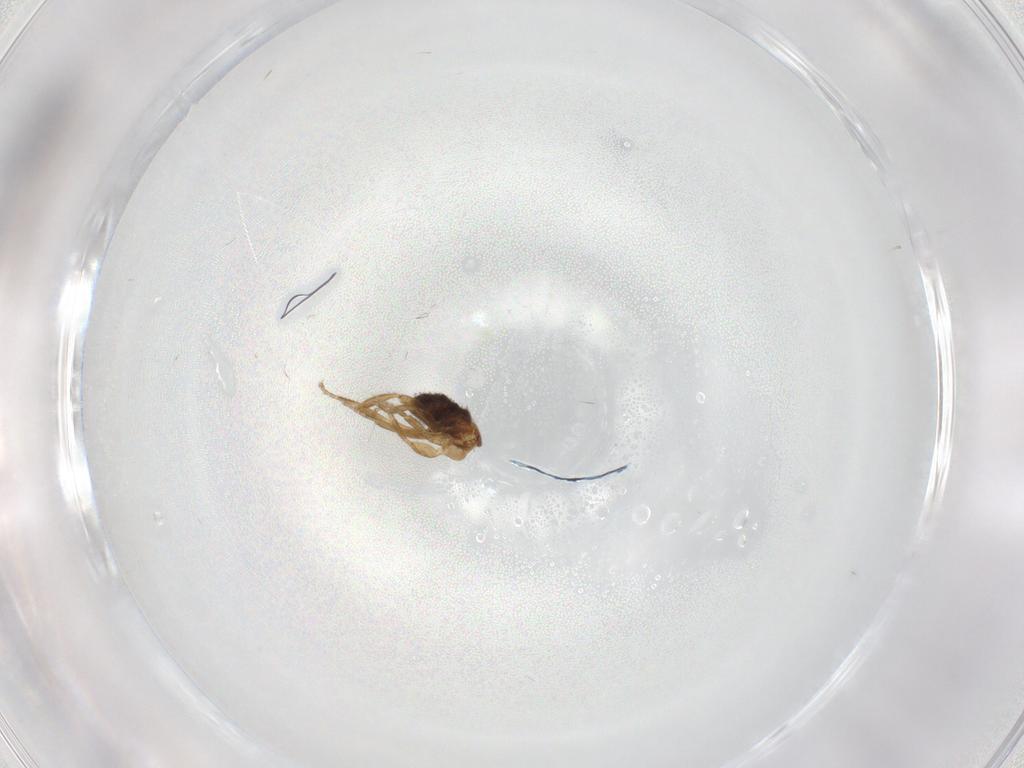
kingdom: Animalia
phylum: Arthropoda
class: Insecta
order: Diptera
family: Phoridae
